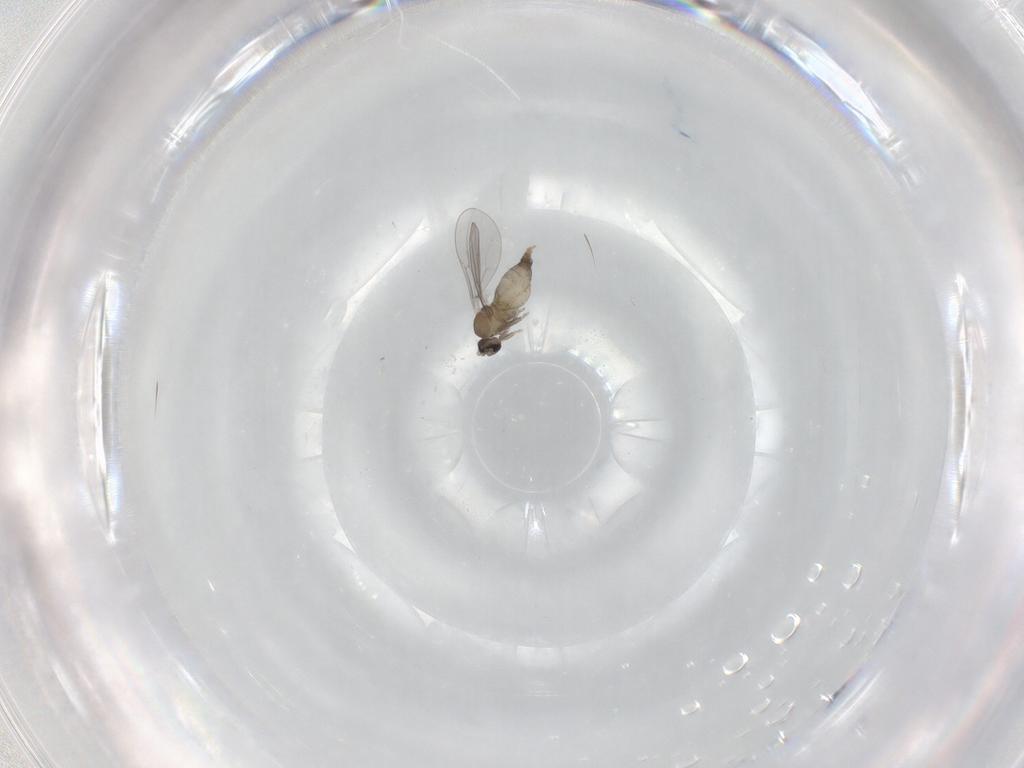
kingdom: Animalia
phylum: Arthropoda
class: Insecta
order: Diptera
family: Cecidomyiidae
